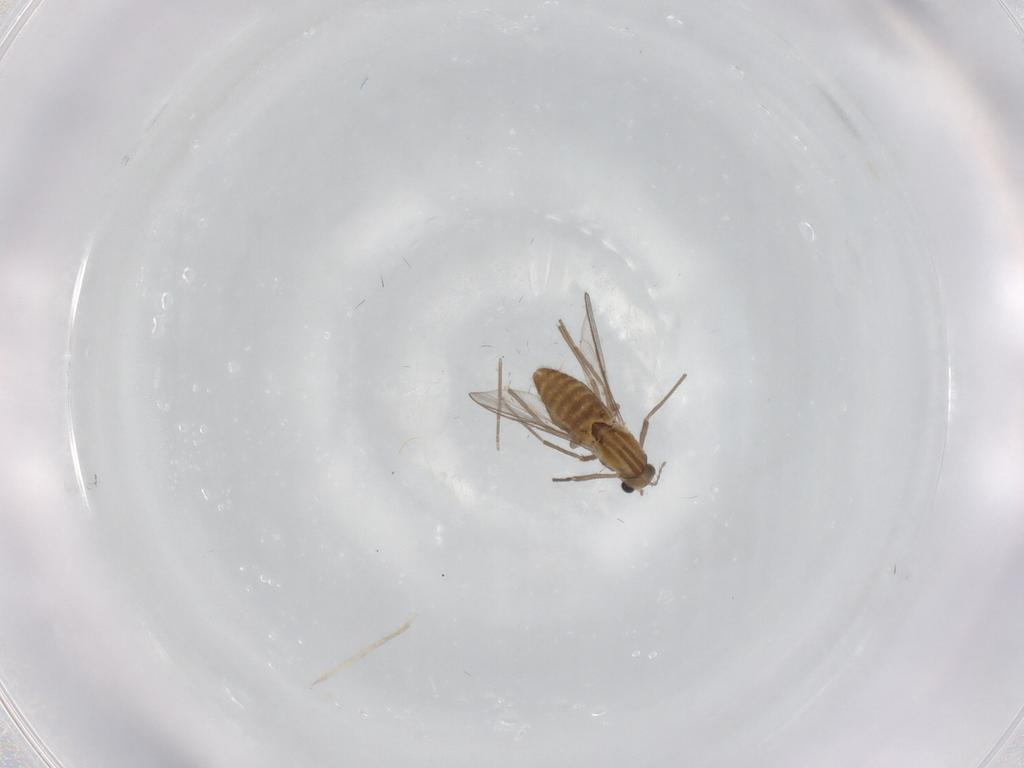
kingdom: Animalia
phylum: Arthropoda
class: Insecta
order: Diptera
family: Chironomidae
